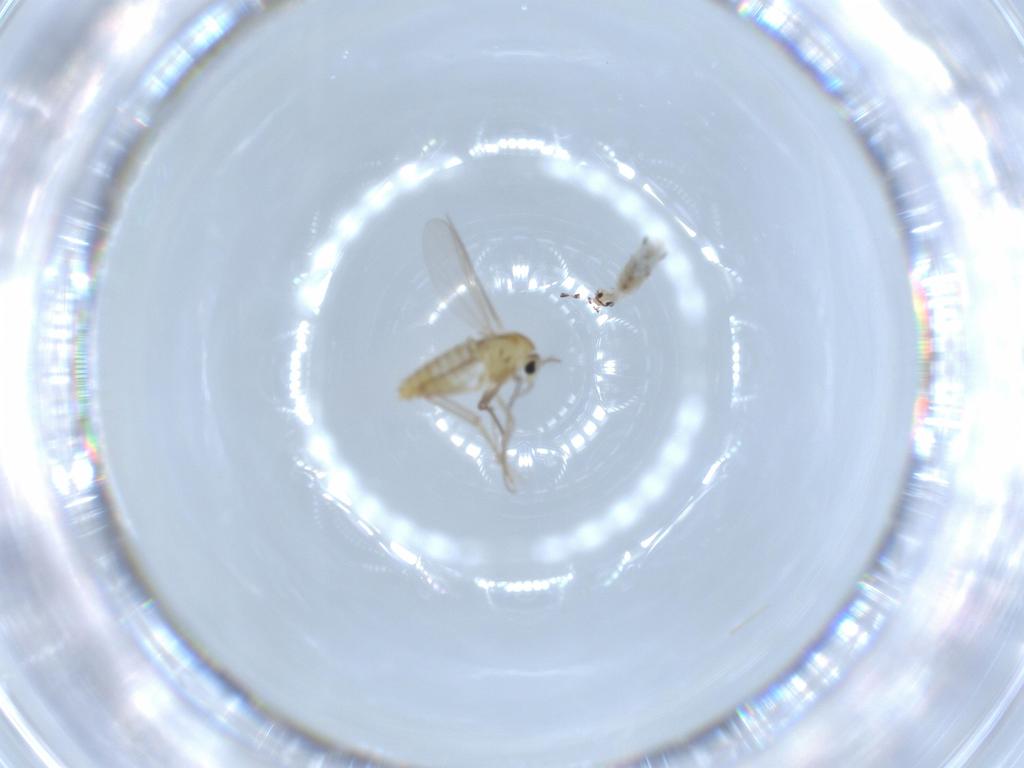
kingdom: Animalia
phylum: Arthropoda
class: Collembola
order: Entomobryomorpha
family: Entomobryidae
